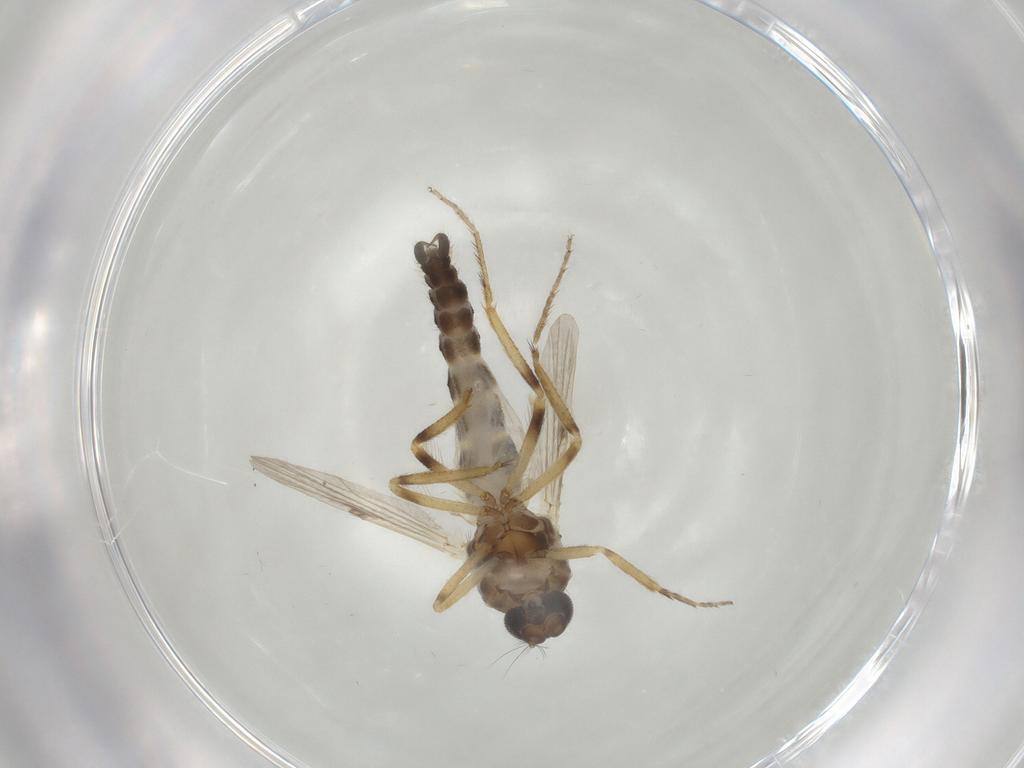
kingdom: Animalia
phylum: Arthropoda
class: Insecta
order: Diptera
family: Ceratopogonidae
